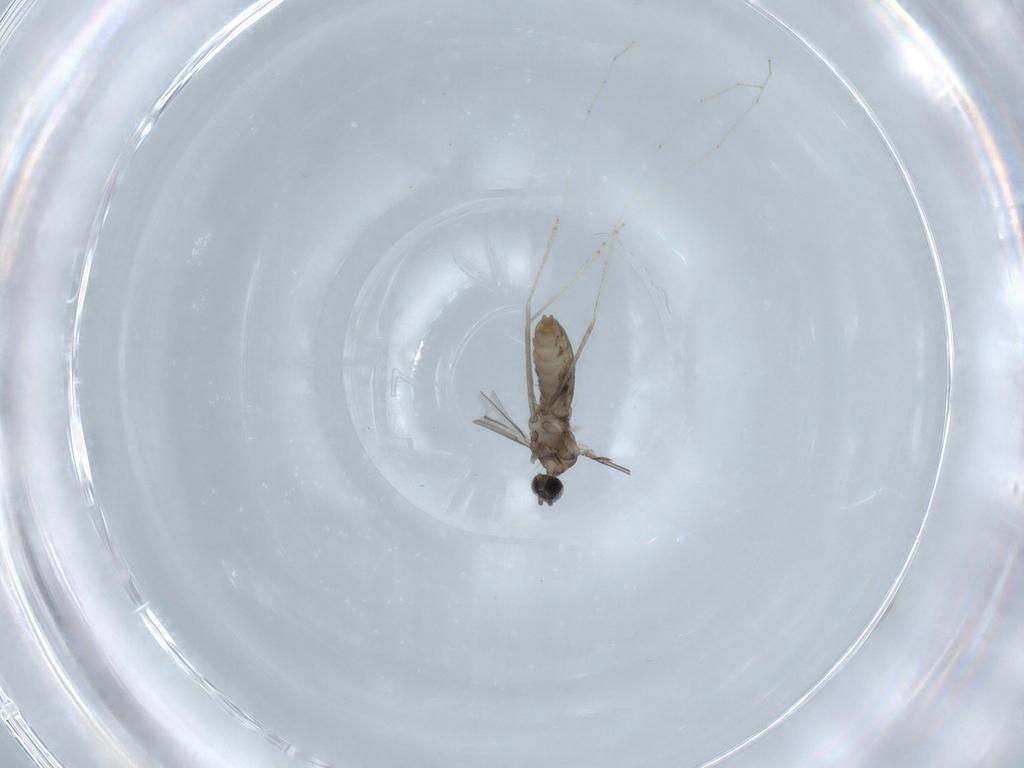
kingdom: Animalia
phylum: Arthropoda
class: Insecta
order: Diptera
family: Cecidomyiidae
